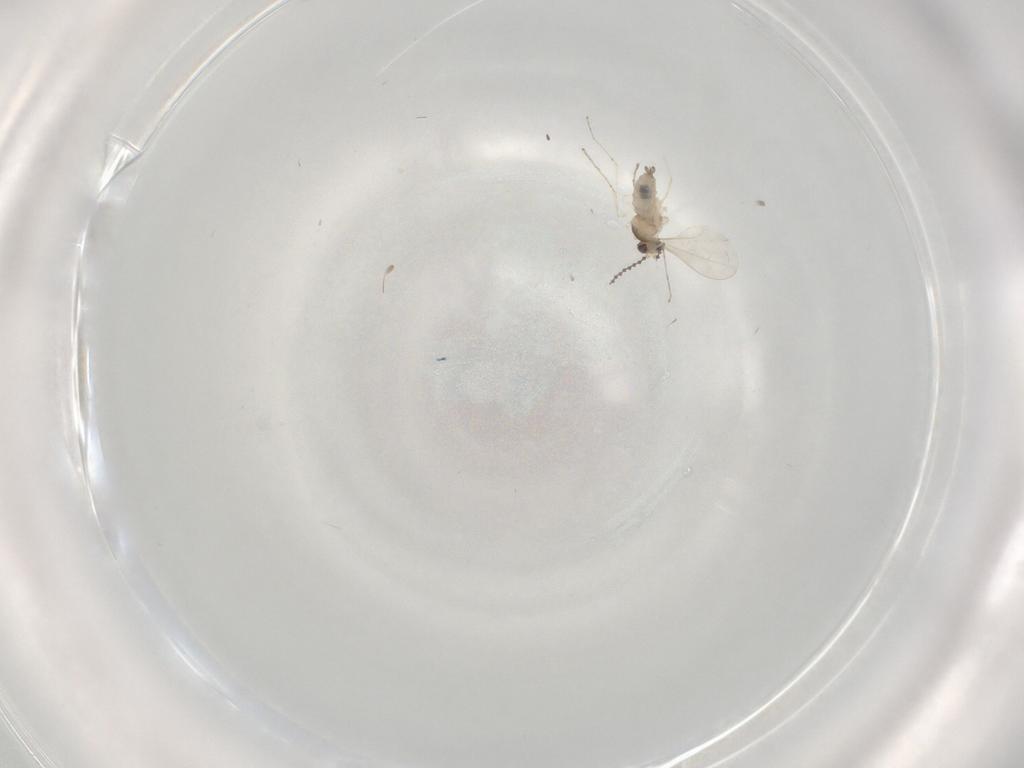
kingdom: Animalia
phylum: Arthropoda
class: Insecta
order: Diptera
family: Cecidomyiidae
